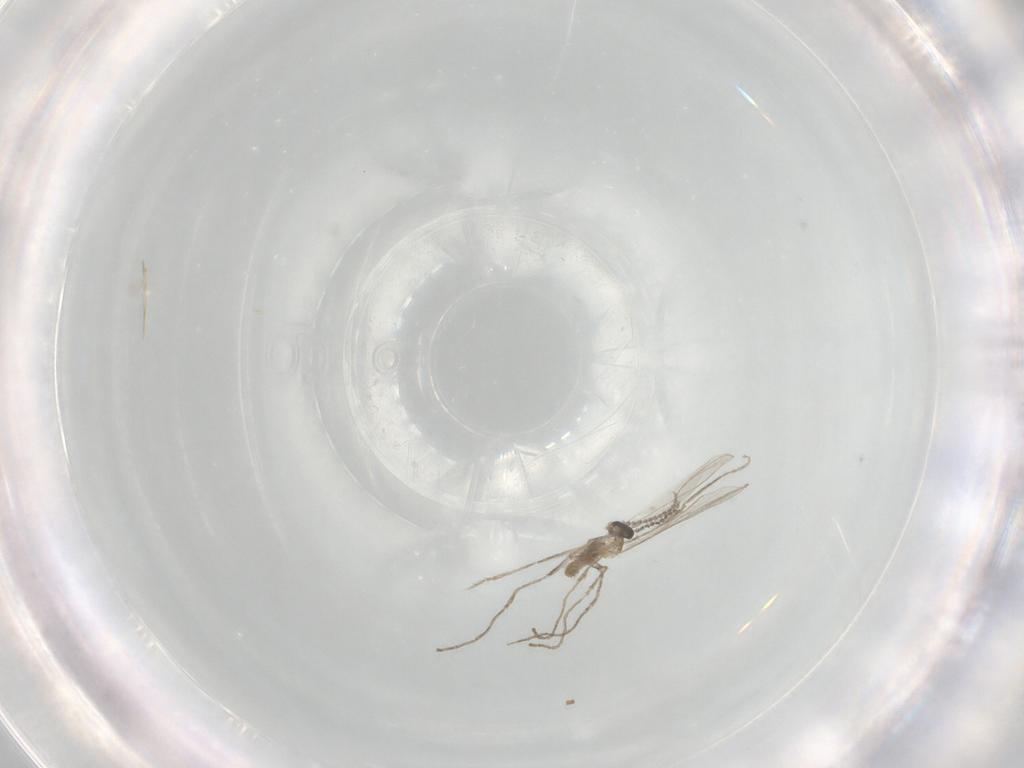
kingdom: Animalia
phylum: Arthropoda
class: Insecta
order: Diptera
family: Cecidomyiidae
